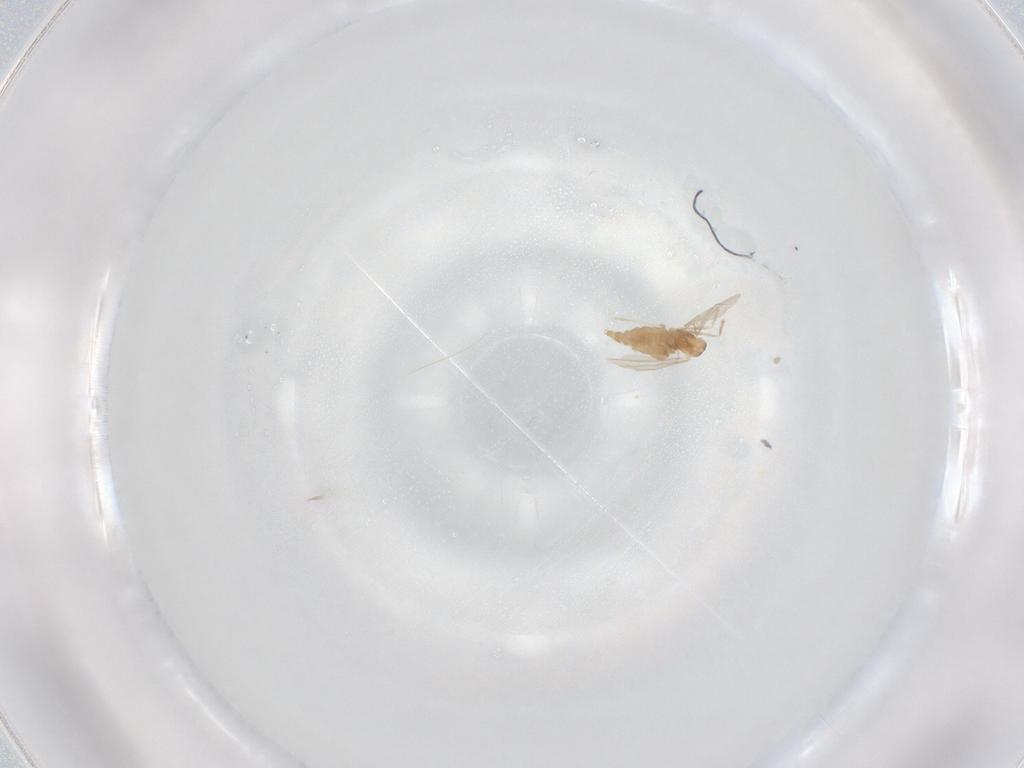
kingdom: Animalia
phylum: Arthropoda
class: Insecta
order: Diptera
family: Cecidomyiidae
